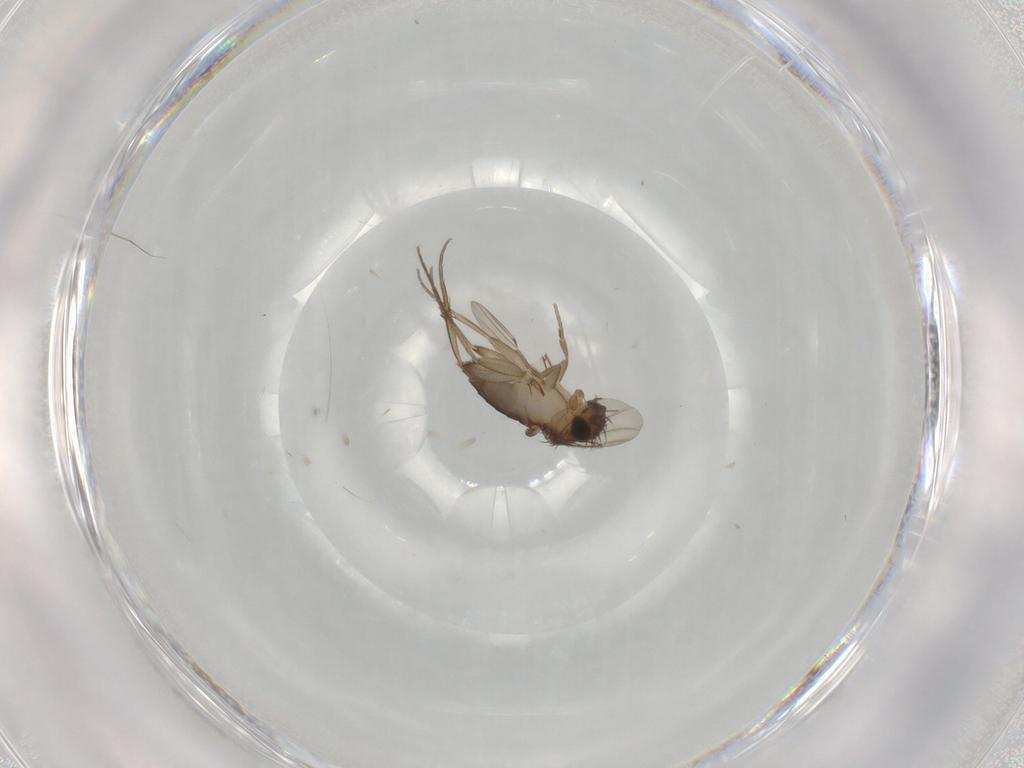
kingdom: Animalia
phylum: Arthropoda
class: Insecta
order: Diptera
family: Phoridae
